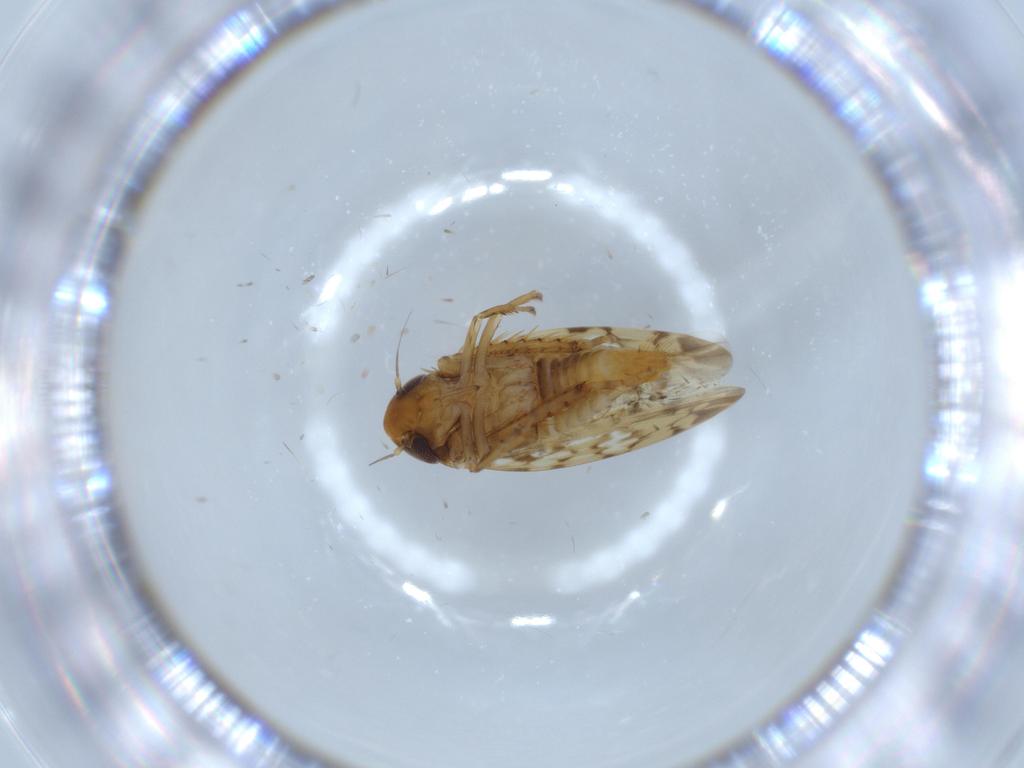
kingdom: Animalia
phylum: Arthropoda
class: Insecta
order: Hemiptera
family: Cicadellidae
